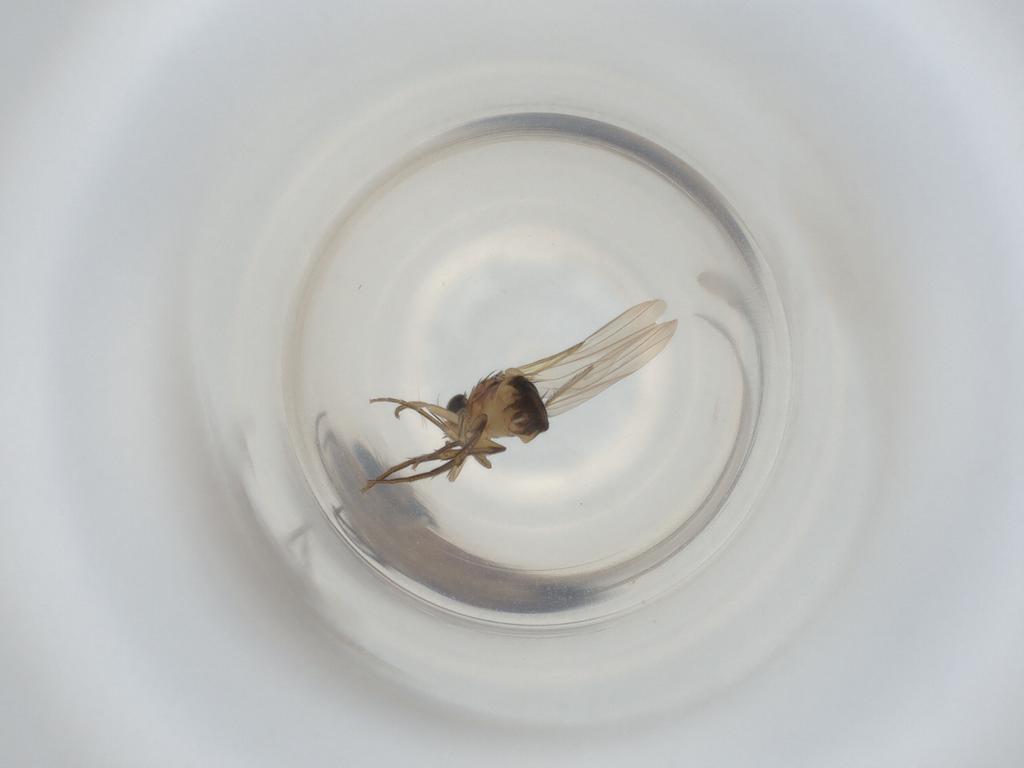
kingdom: Animalia
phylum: Arthropoda
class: Insecta
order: Diptera
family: Phoridae
